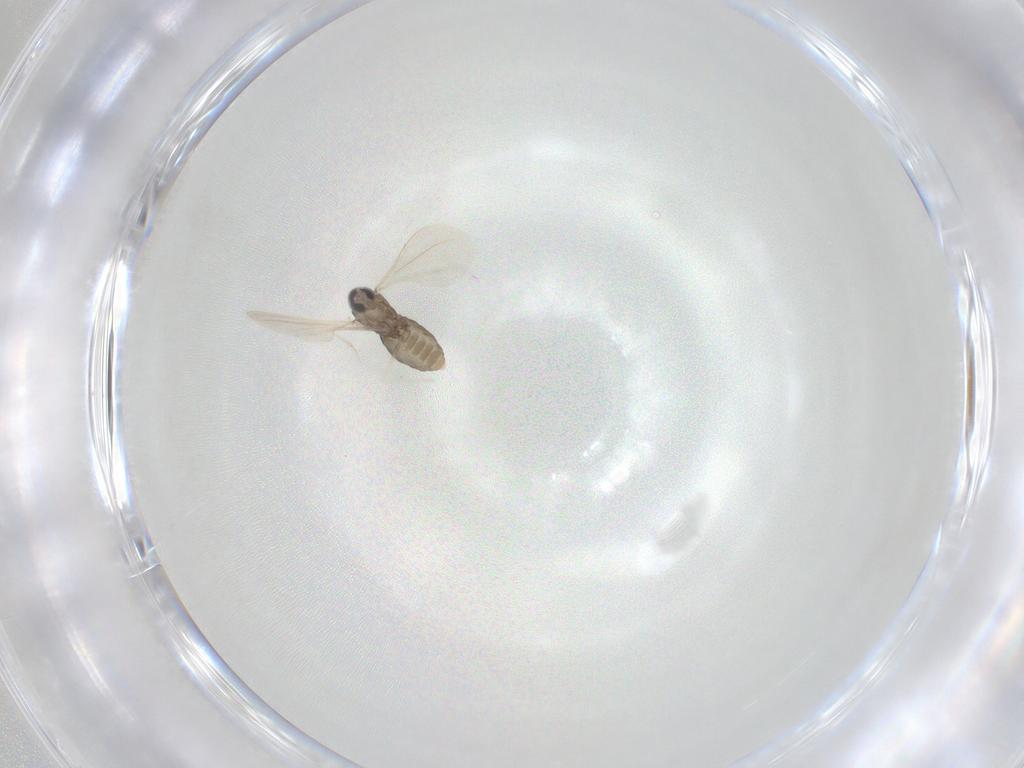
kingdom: Animalia
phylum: Arthropoda
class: Insecta
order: Diptera
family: Cecidomyiidae
